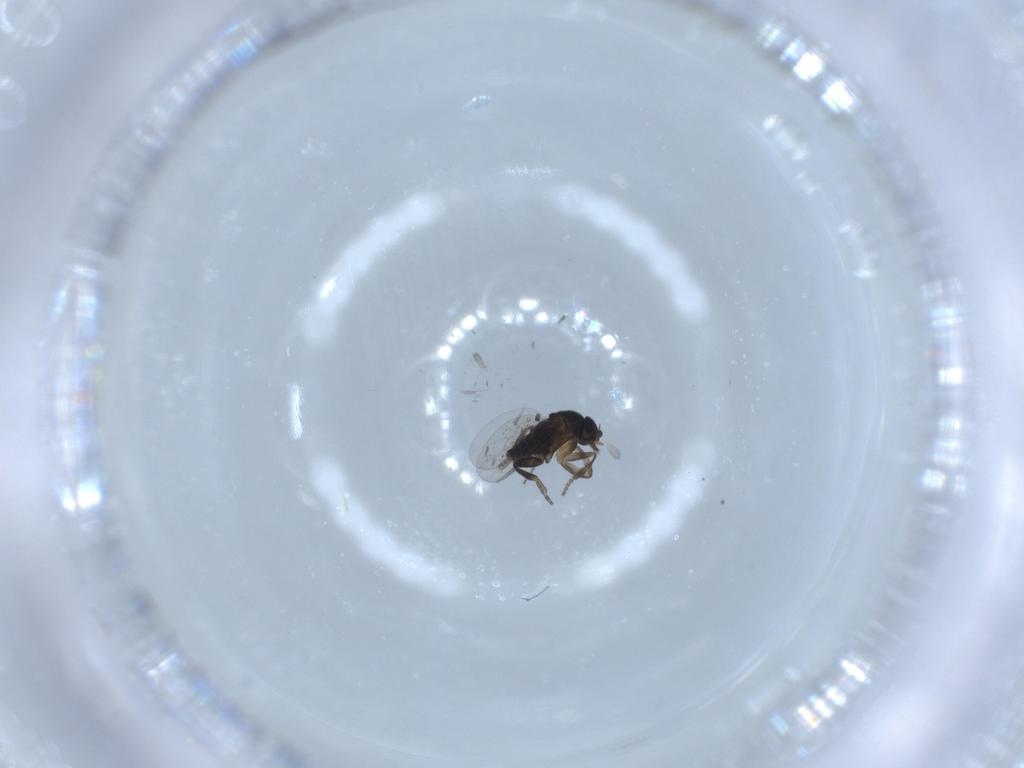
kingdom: Animalia
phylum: Arthropoda
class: Insecta
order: Diptera
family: Phoridae
